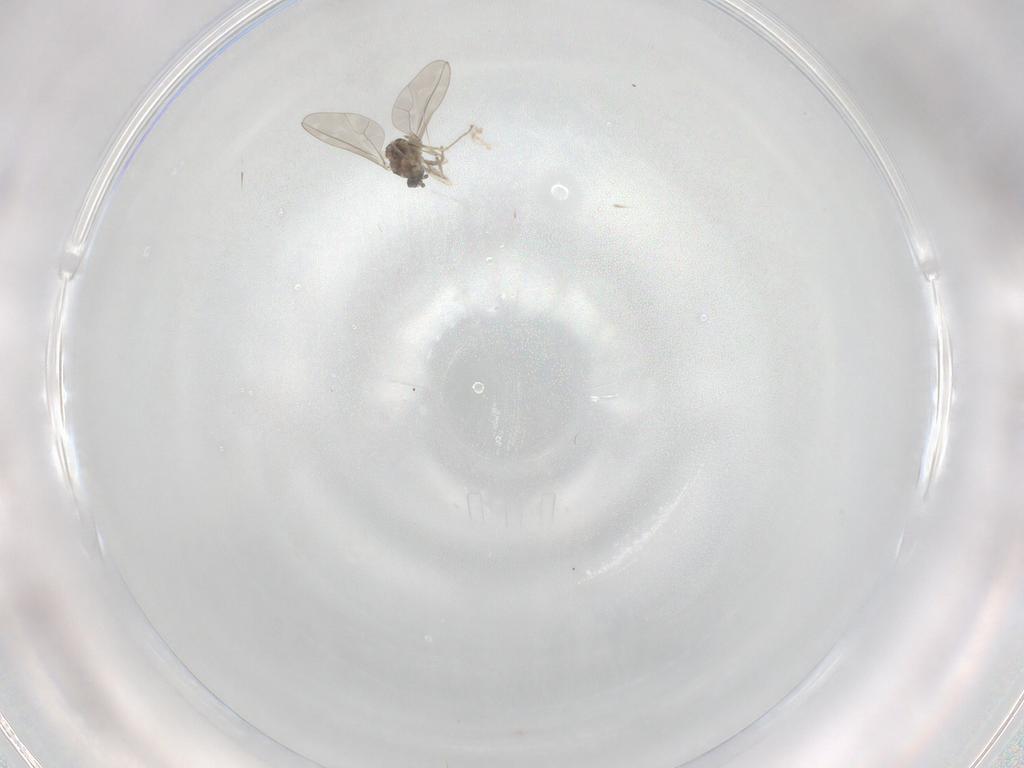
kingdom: Animalia
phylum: Arthropoda
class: Insecta
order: Diptera
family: Cecidomyiidae
